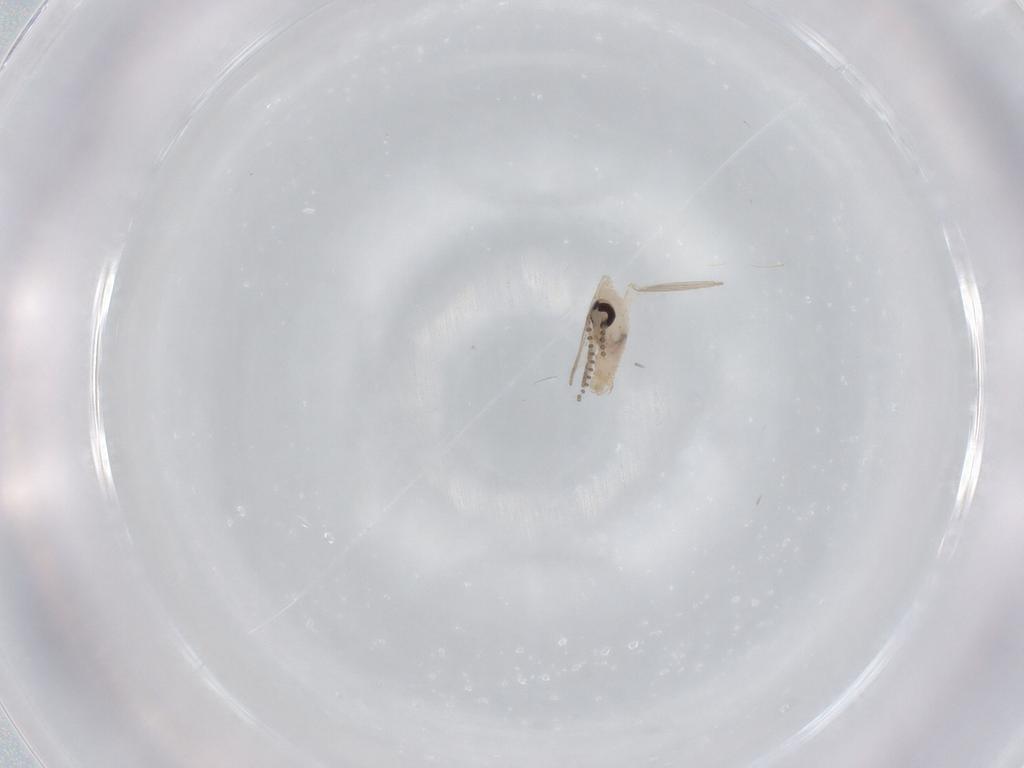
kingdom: Animalia
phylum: Arthropoda
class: Insecta
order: Diptera
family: Psychodidae
